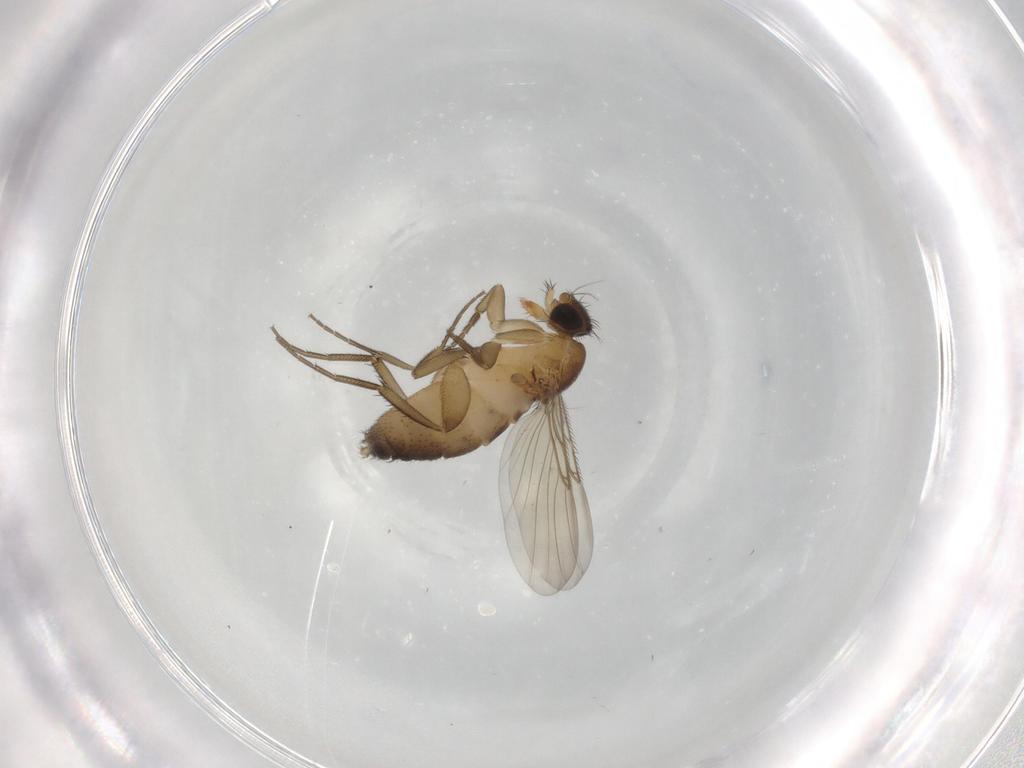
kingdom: Animalia
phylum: Arthropoda
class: Insecta
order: Diptera
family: Phoridae
